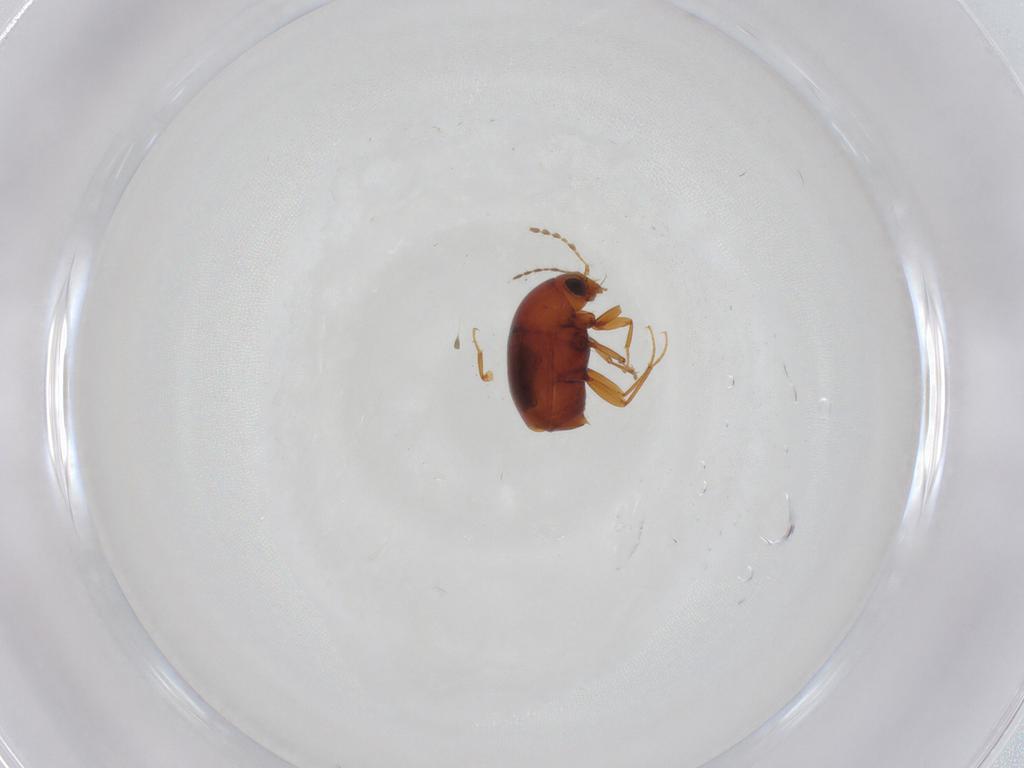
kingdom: Animalia
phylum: Arthropoda
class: Insecta
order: Coleoptera
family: Staphylinidae
